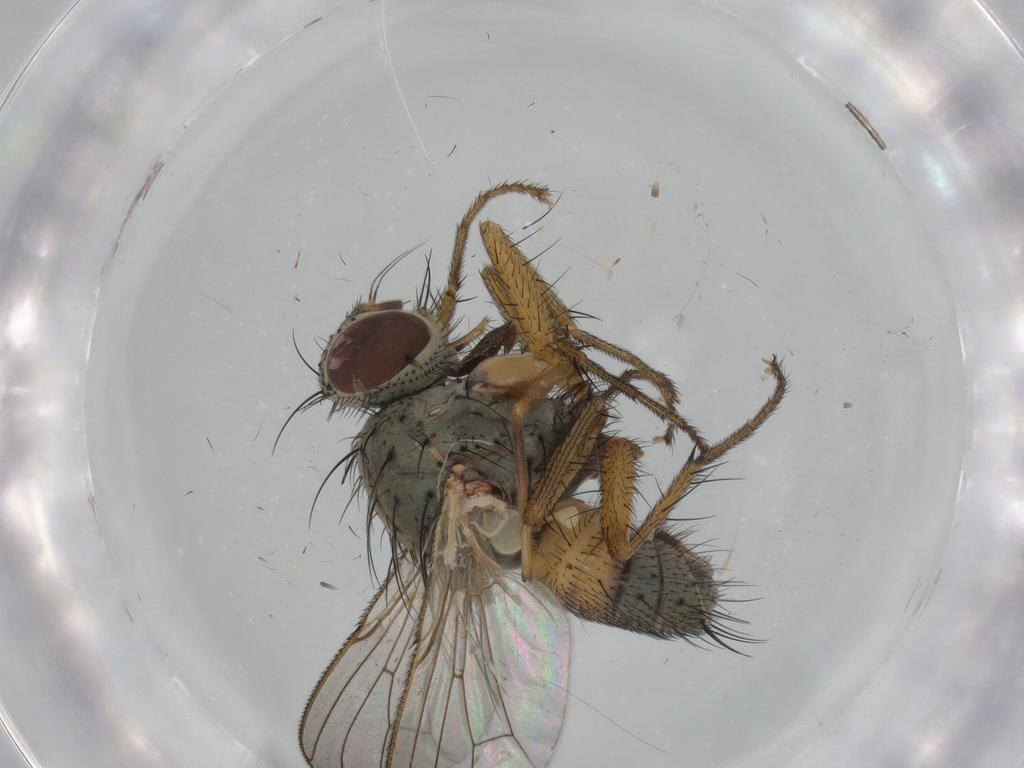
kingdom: Animalia
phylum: Arthropoda
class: Insecta
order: Diptera
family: Muscidae
